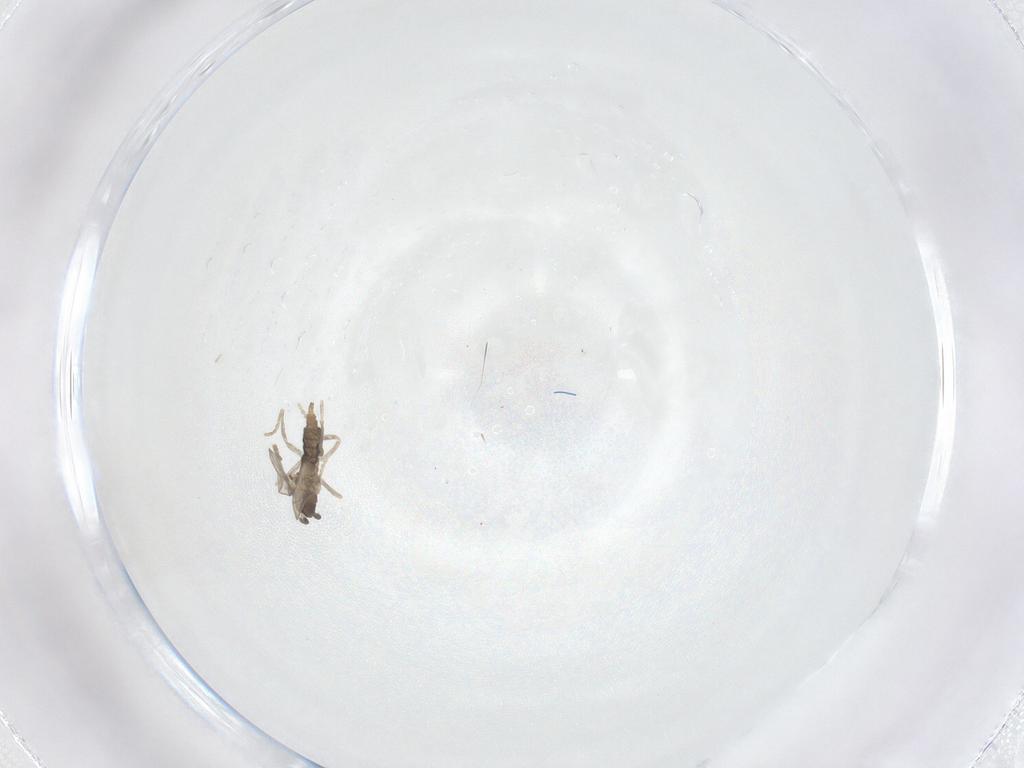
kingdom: Animalia
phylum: Arthropoda
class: Insecta
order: Diptera
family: Cecidomyiidae
